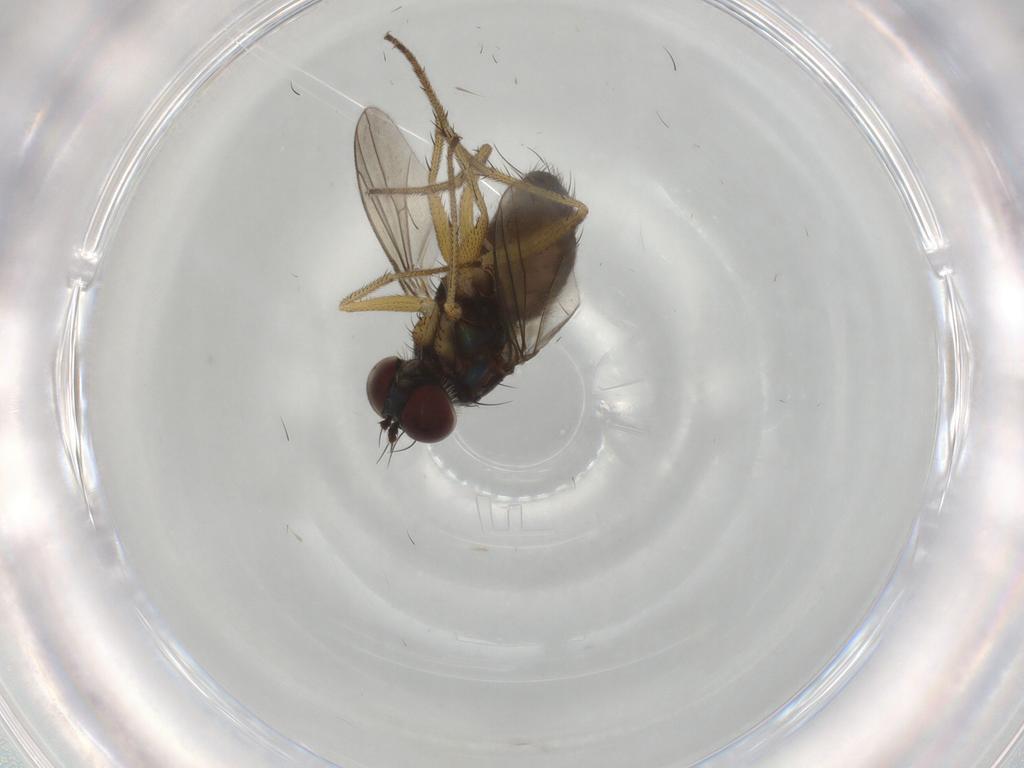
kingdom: Animalia
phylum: Arthropoda
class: Insecta
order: Diptera
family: Dolichopodidae
